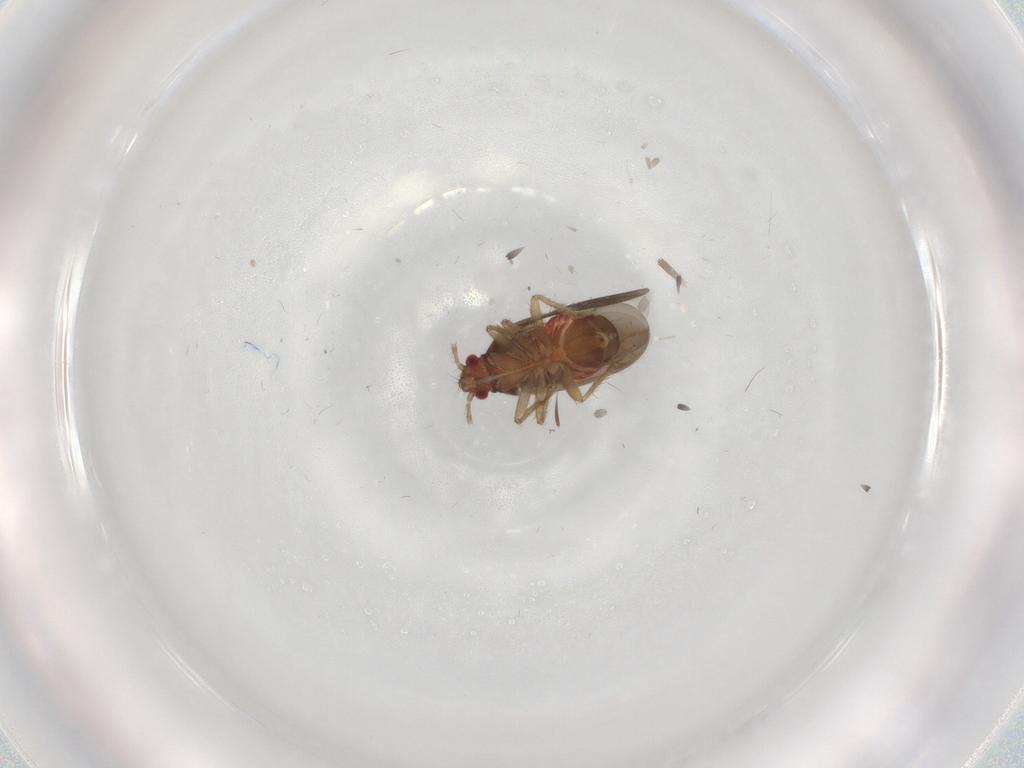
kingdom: Animalia
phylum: Arthropoda
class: Insecta
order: Hemiptera
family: Ceratocombidae
